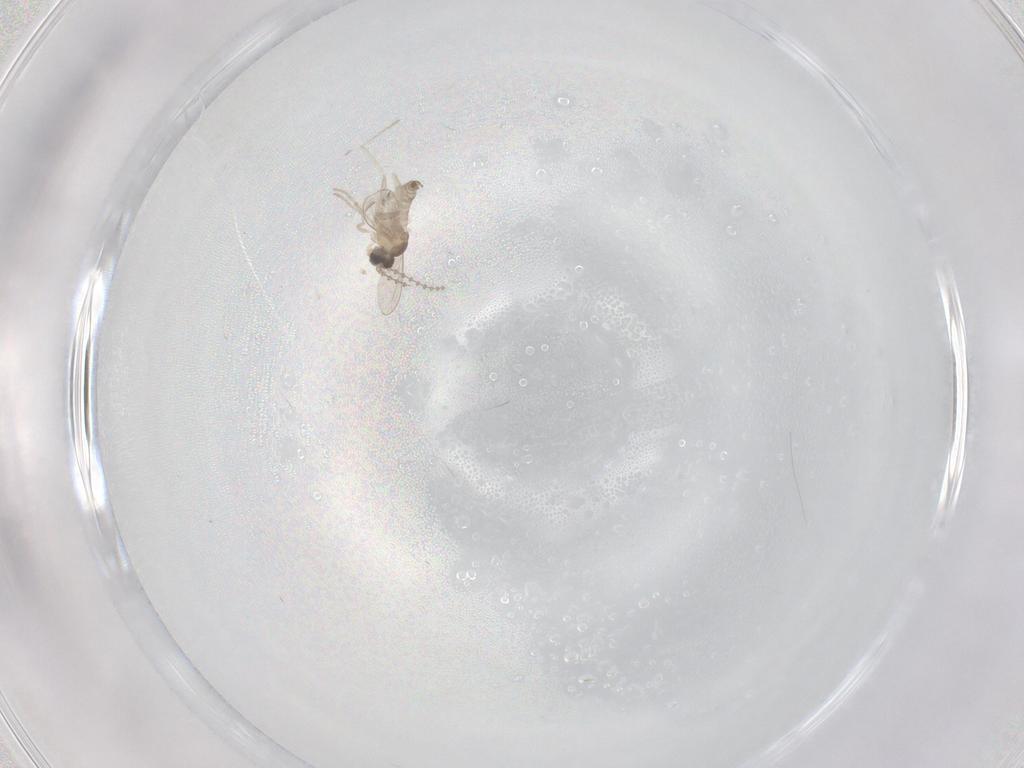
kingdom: Animalia
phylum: Arthropoda
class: Insecta
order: Diptera
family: Cecidomyiidae
